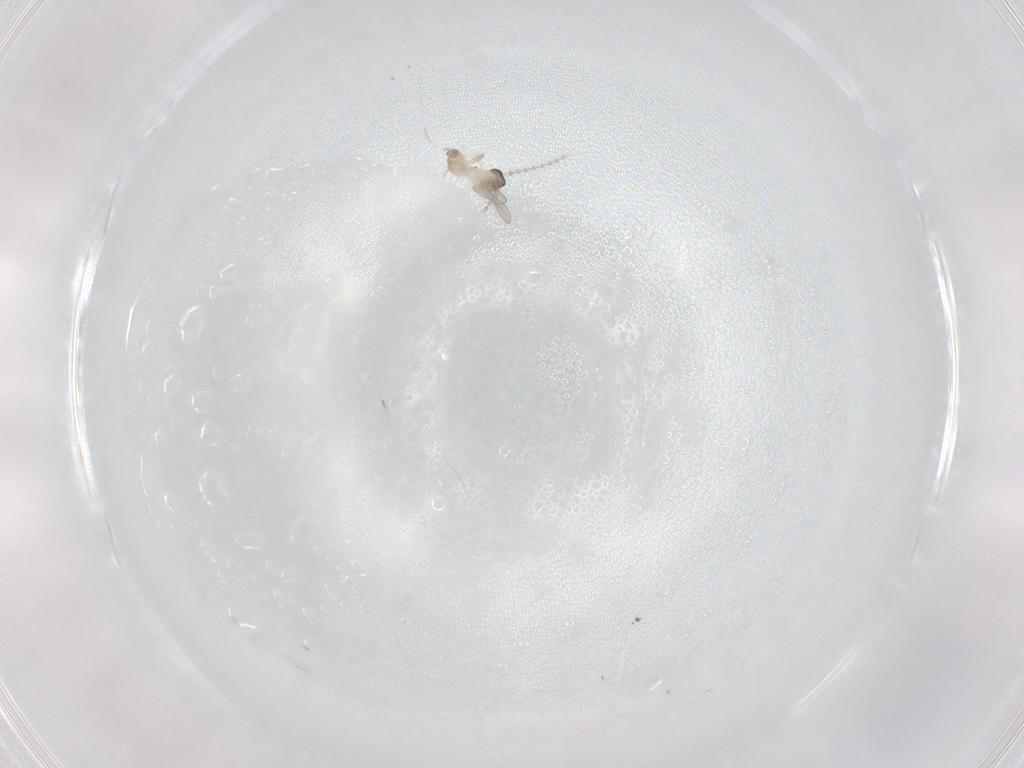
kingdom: Animalia
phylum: Arthropoda
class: Insecta
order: Diptera
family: Cecidomyiidae
